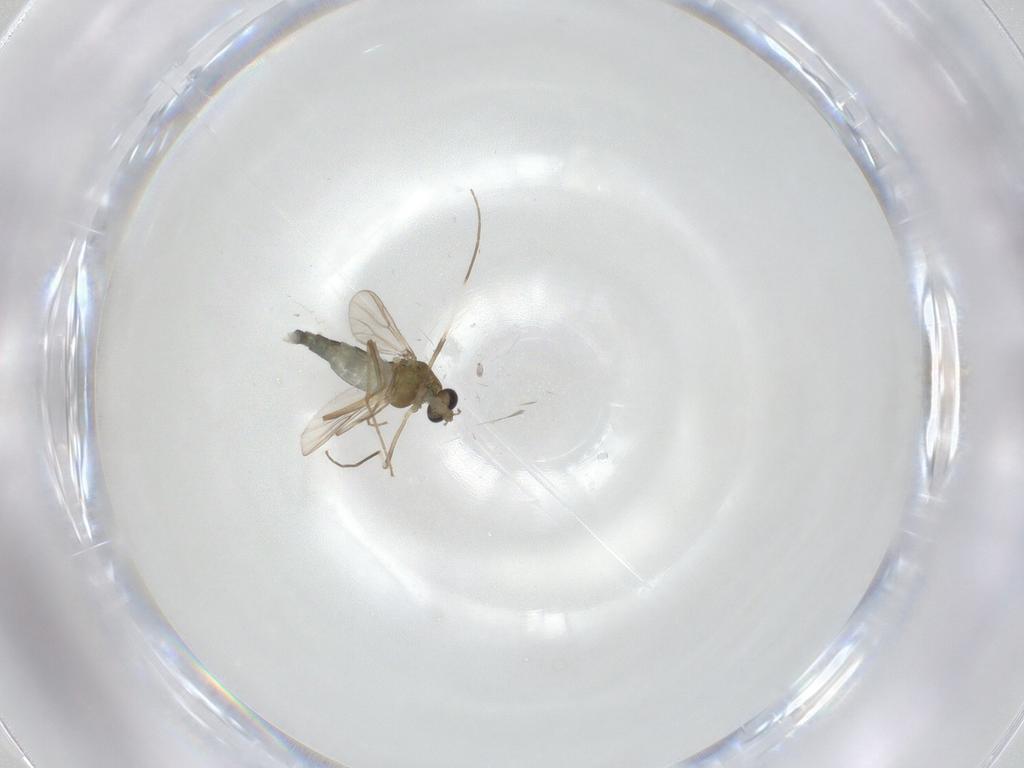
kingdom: Animalia
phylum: Arthropoda
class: Insecta
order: Diptera
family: Chironomidae
